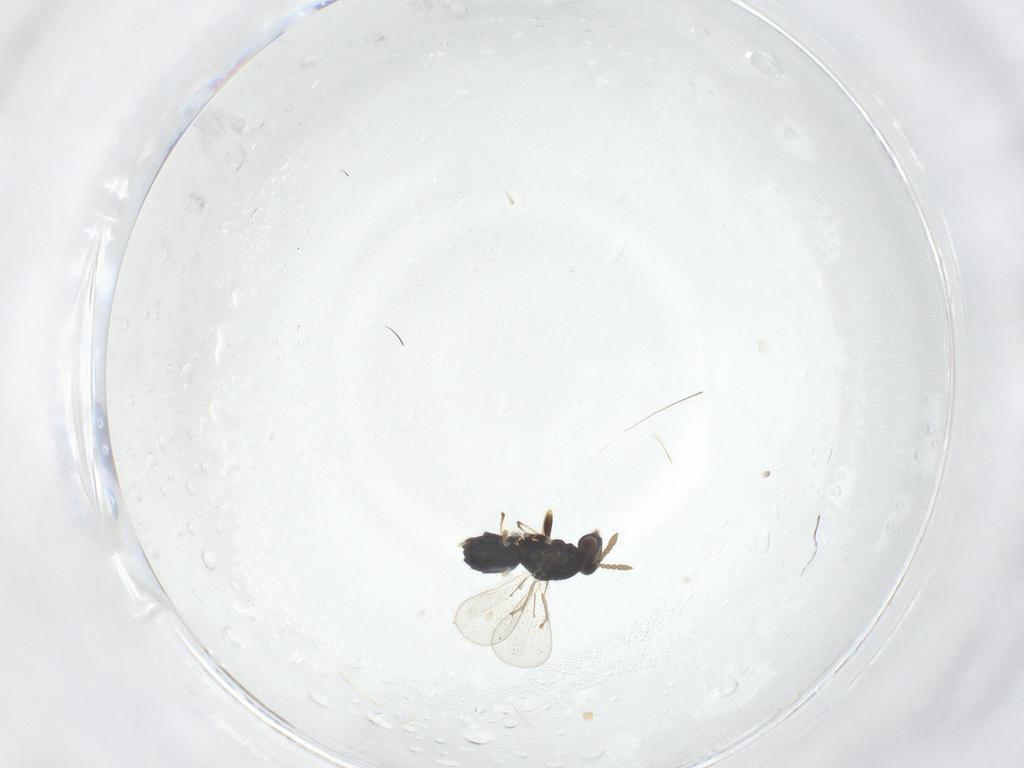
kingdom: Animalia
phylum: Arthropoda
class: Insecta
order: Hymenoptera
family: Eulophidae
